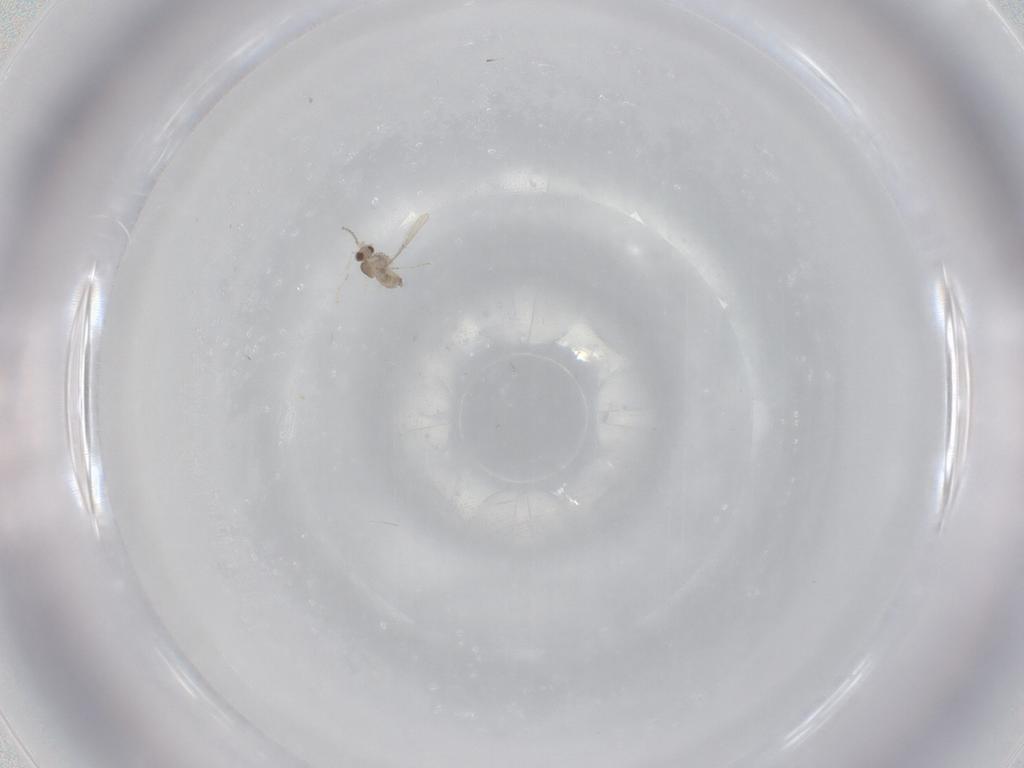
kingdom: Animalia
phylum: Arthropoda
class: Insecta
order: Diptera
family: Cecidomyiidae
